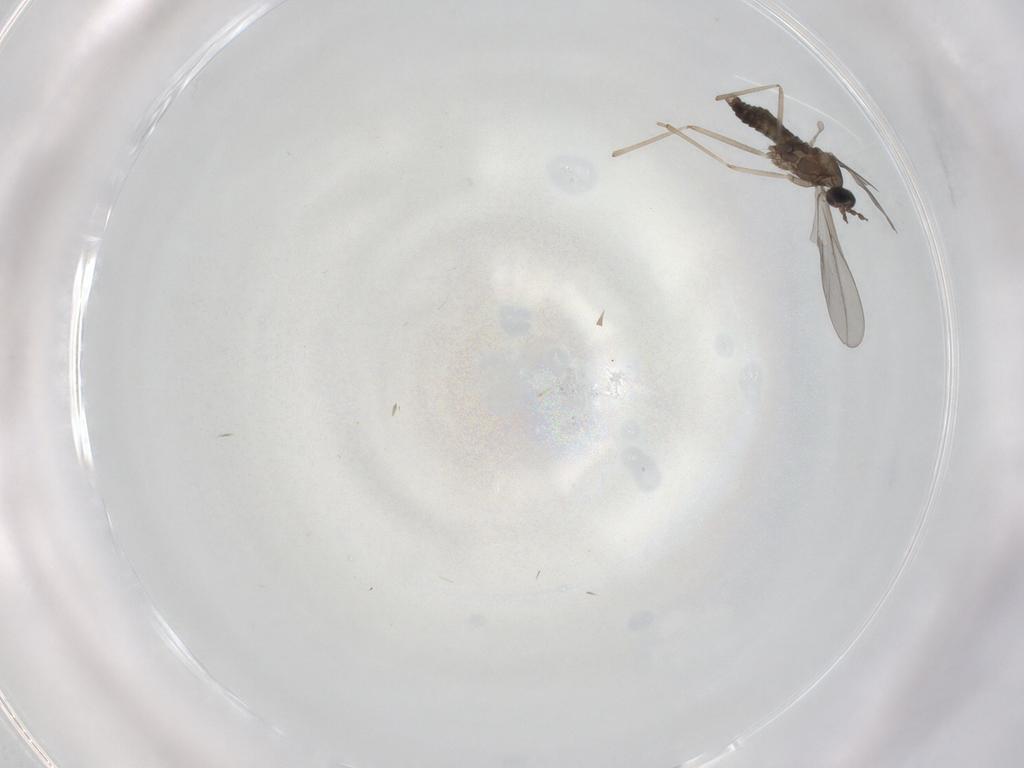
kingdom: Animalia
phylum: Arthropoda
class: Insecta
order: Diptera
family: Cecidomyiidae
